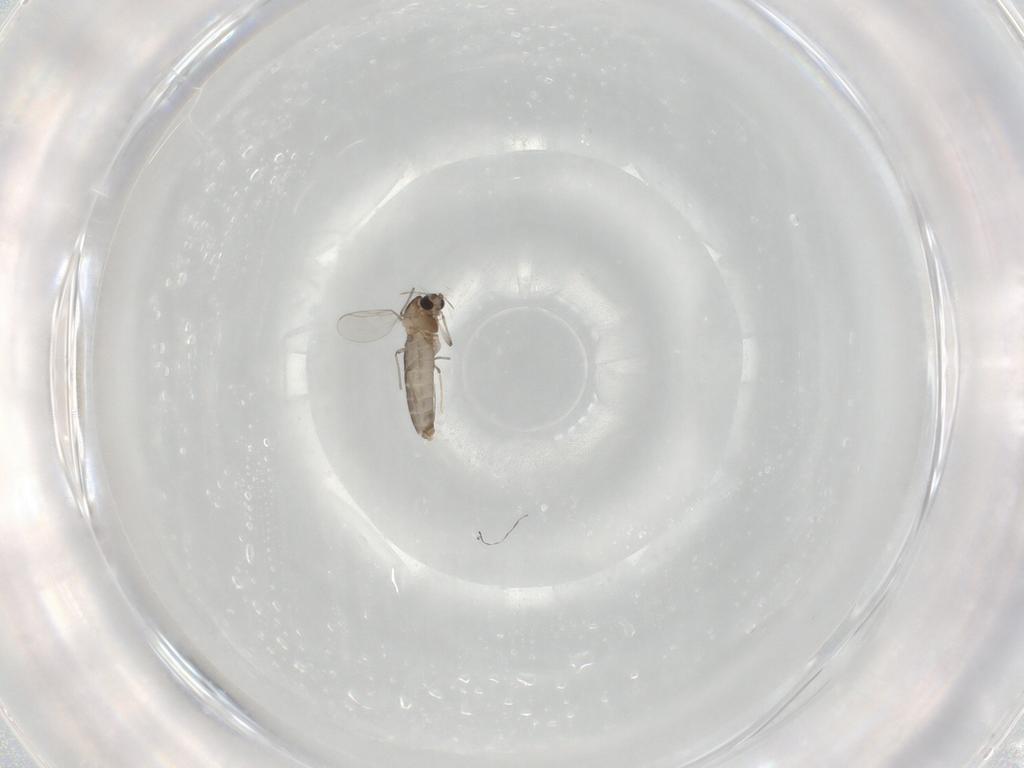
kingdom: Animalia
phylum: Arthropoda
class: Insecta
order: Diptera
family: Chironomidae
